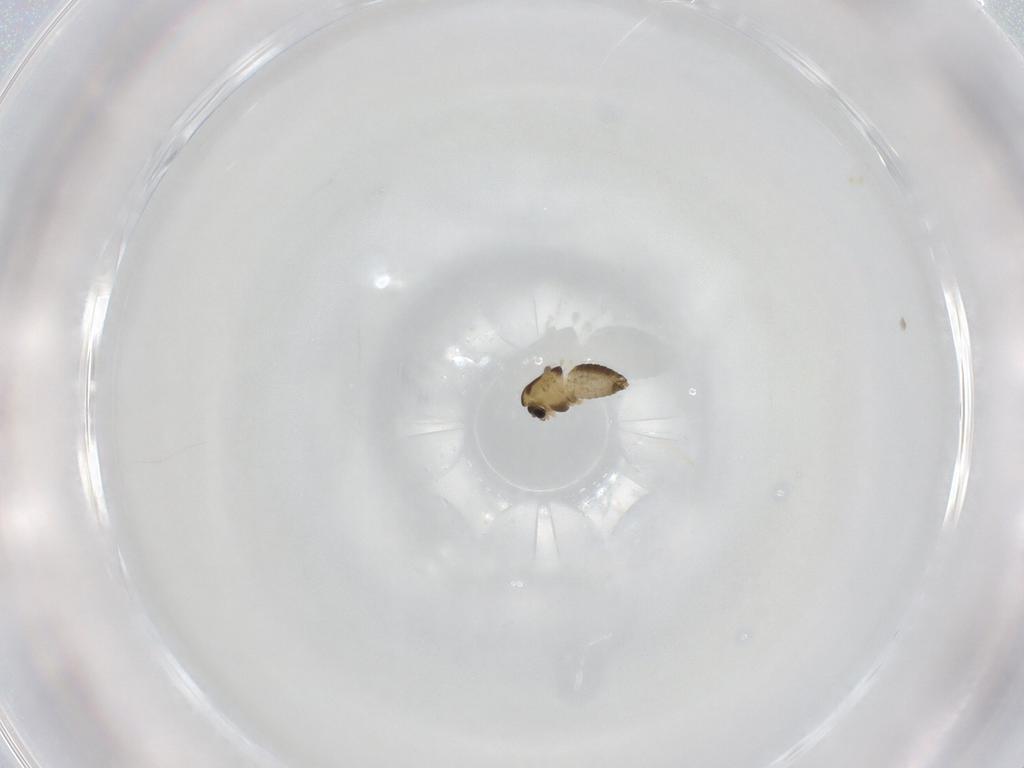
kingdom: Animalia
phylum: Arthropoda
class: Insecta
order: Diptera
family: Chironomidae
